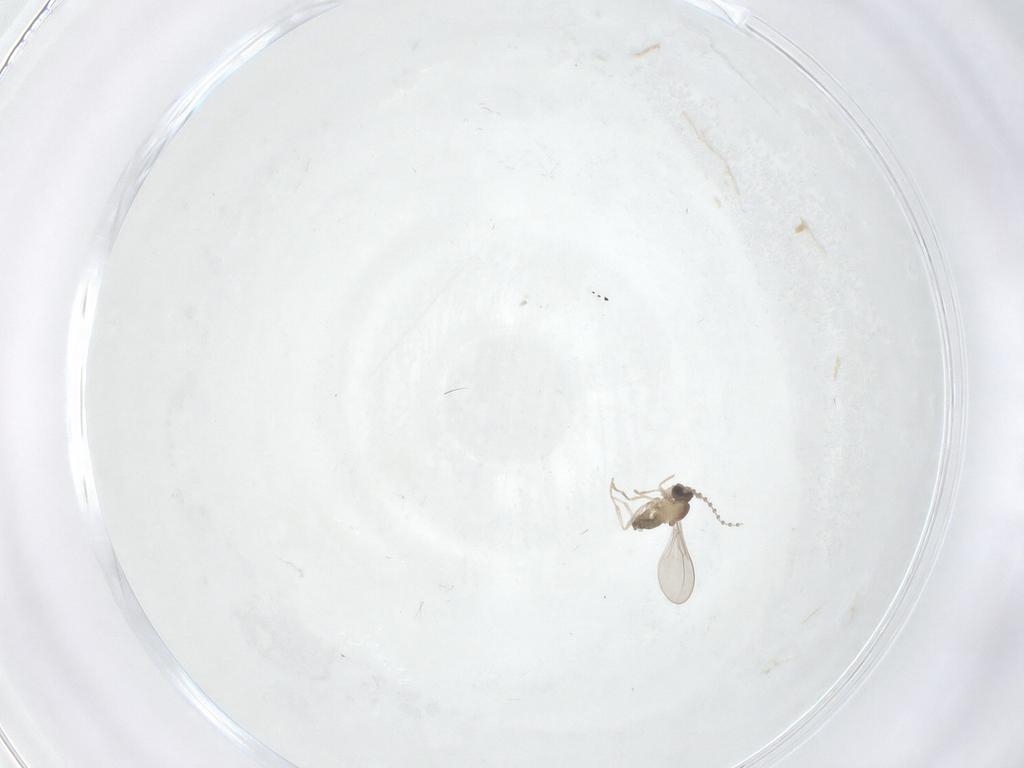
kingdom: Animalia
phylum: Arthropoda
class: Insecta
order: Diptera
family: Cecidomyiidae
